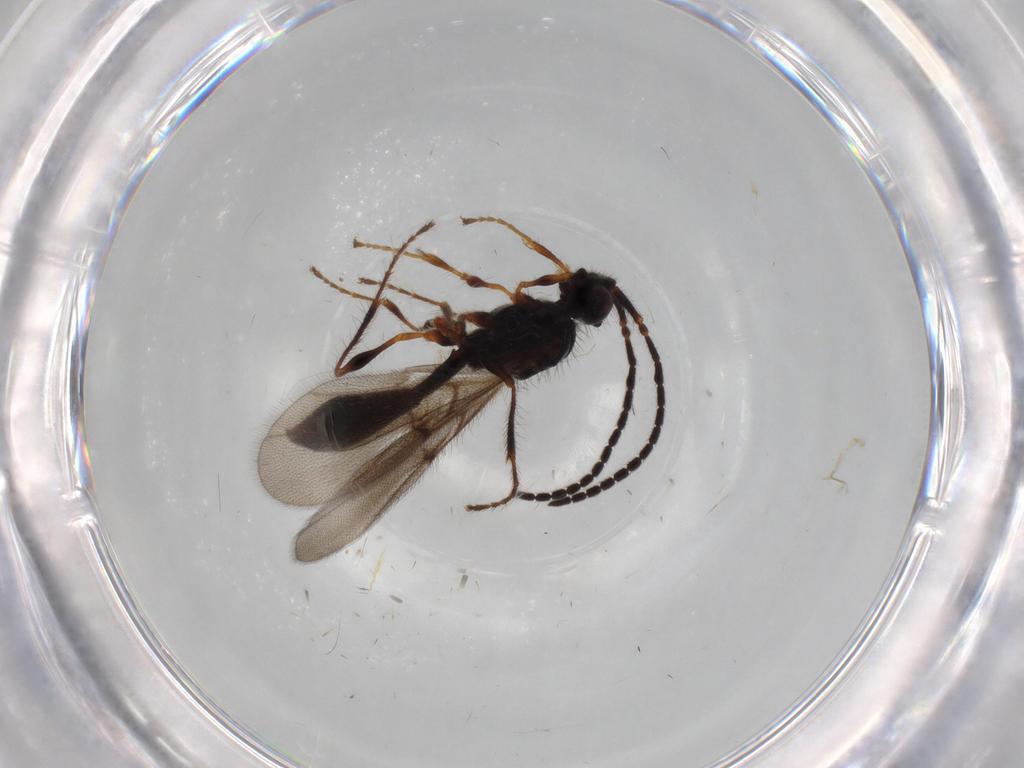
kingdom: Animalia
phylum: Arthropoda
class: Insecta
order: Hymenoptera
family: Diapriidae
